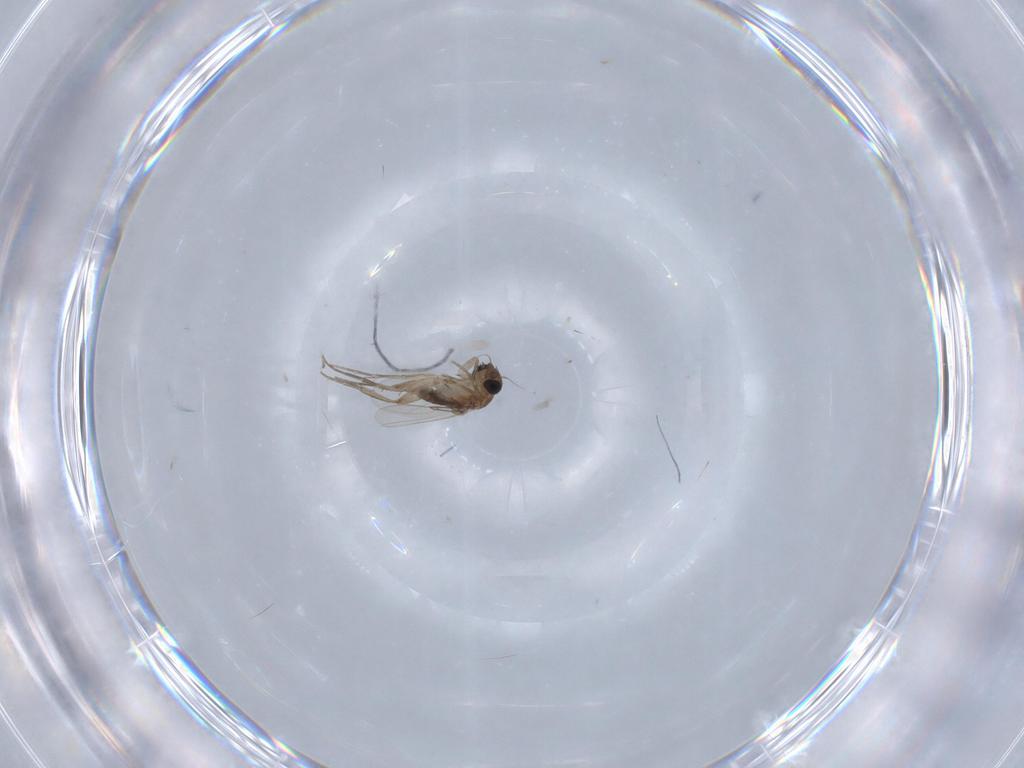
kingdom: Animalia
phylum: Arthropoda
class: Insecta
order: Diptera
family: Phoridae
